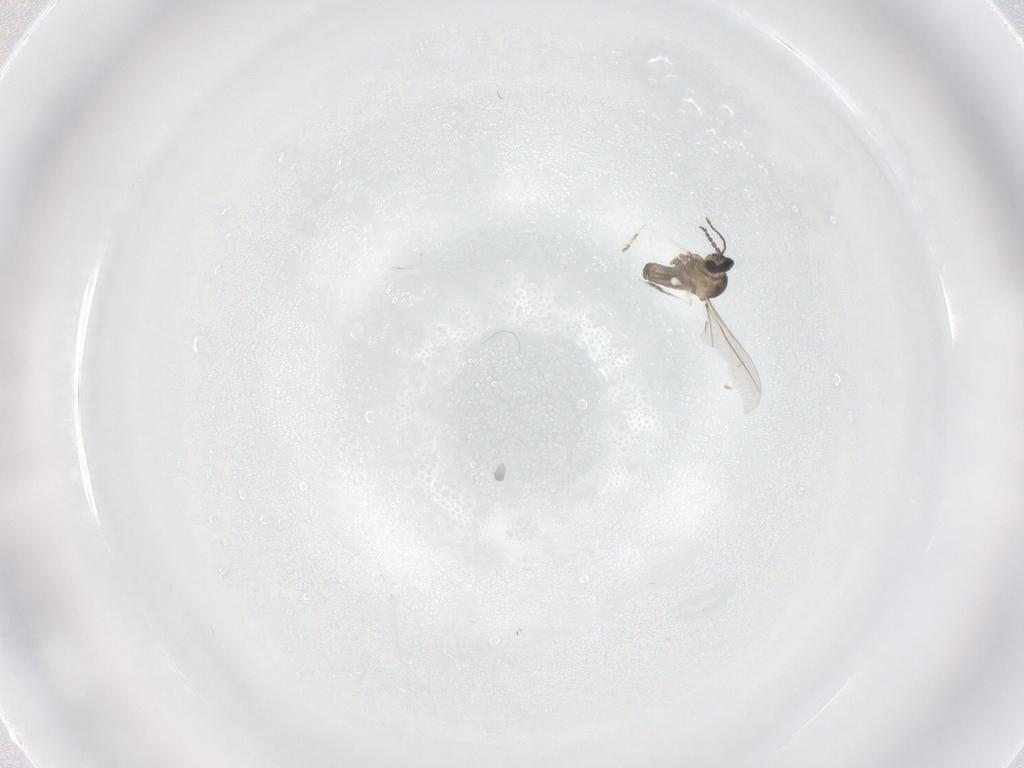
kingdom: Animalia
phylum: Arthropoda
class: Insecta
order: Diptera
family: Cecidomyiidae
